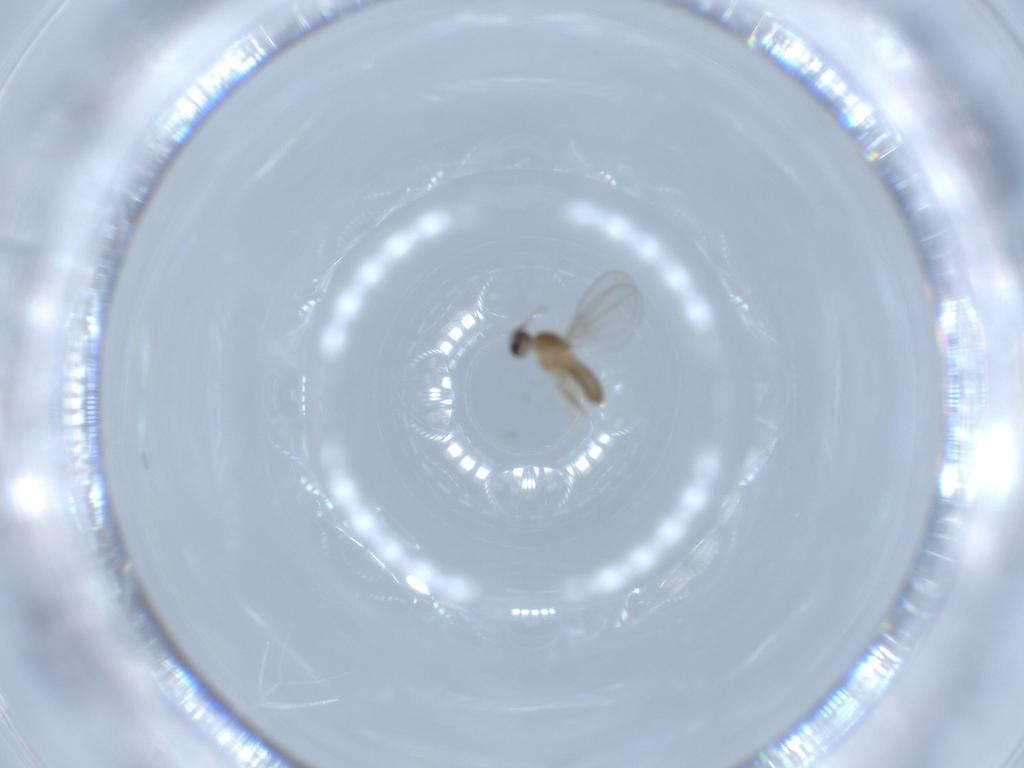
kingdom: Animalia
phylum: Arthropoda
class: Insecta
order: Diptera
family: Cecidomyiidae
